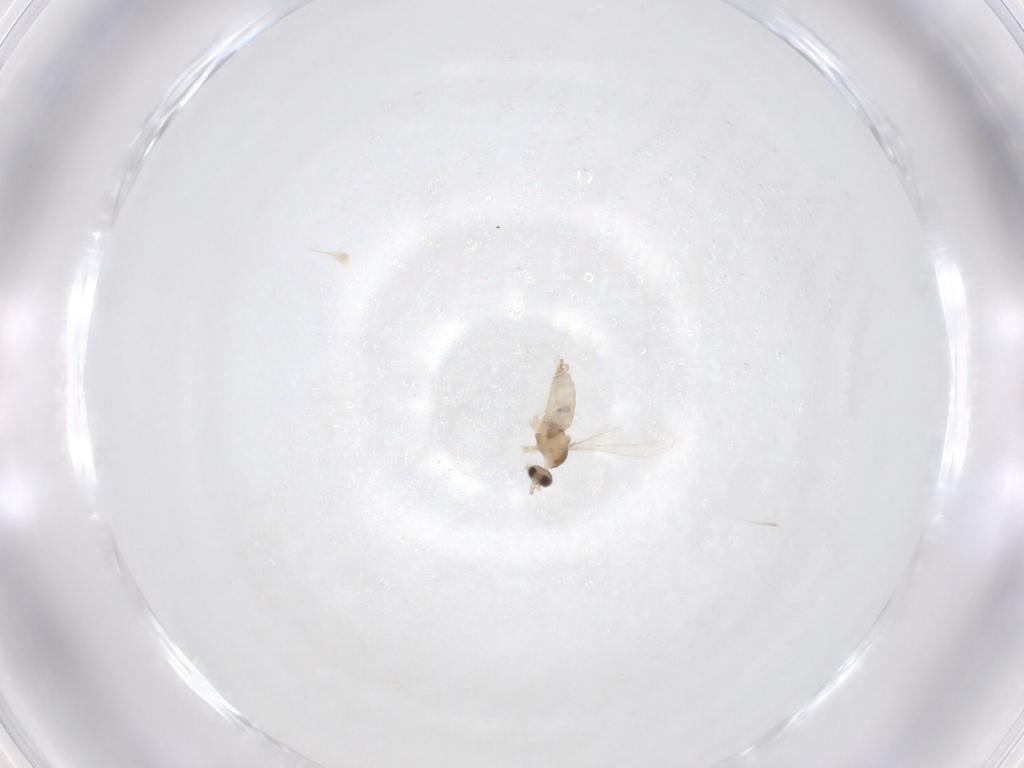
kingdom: Animalia
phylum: Arthropoda
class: Insecta
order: Diptera
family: Cecidomyiidae
